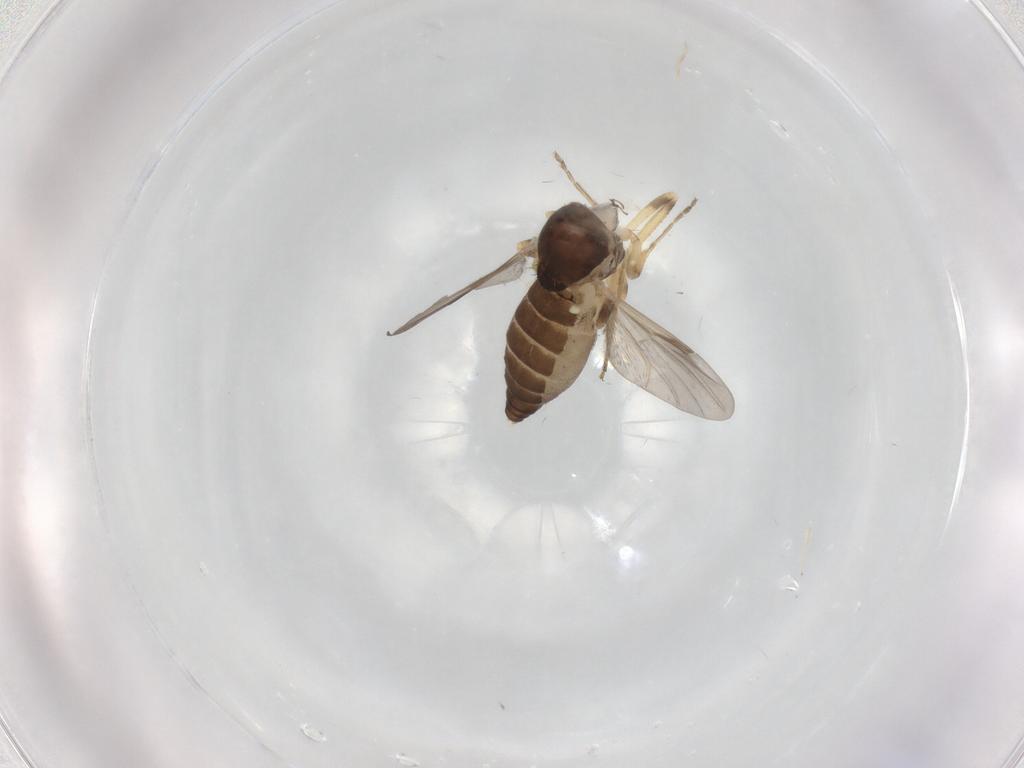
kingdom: Animalia
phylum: Arthropoda
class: Insecta
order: Diptera
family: Ceratopogonidae
